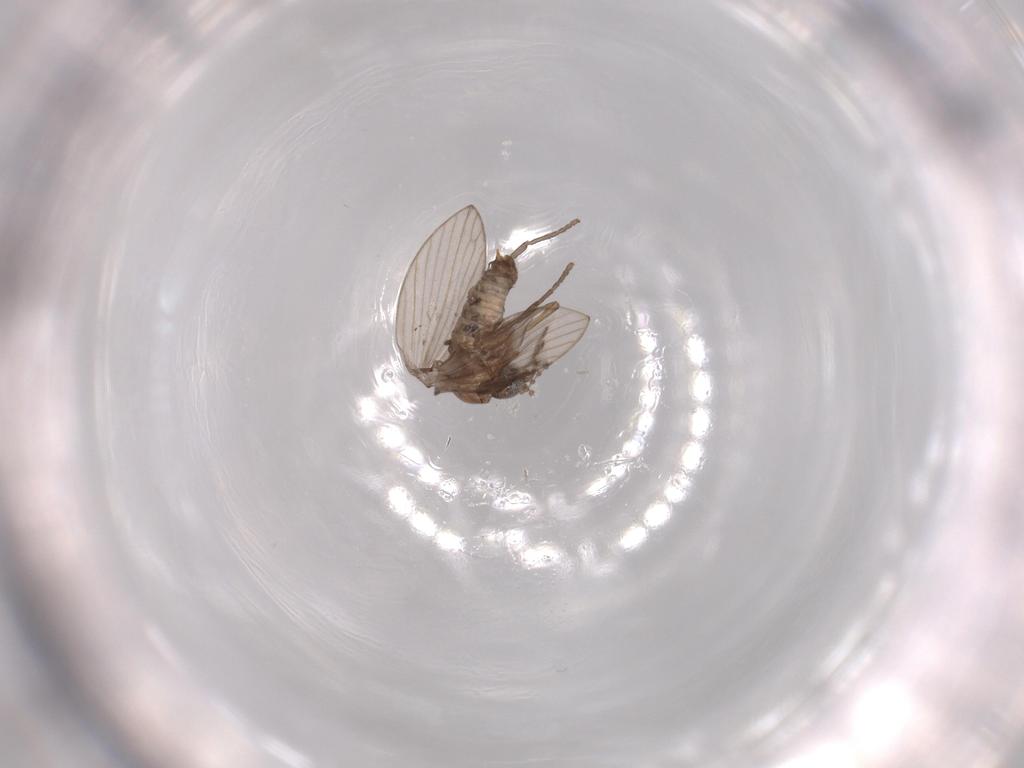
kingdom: Animalia
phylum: Arthropoda
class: Insecta
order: Diptera
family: Psychodidae
